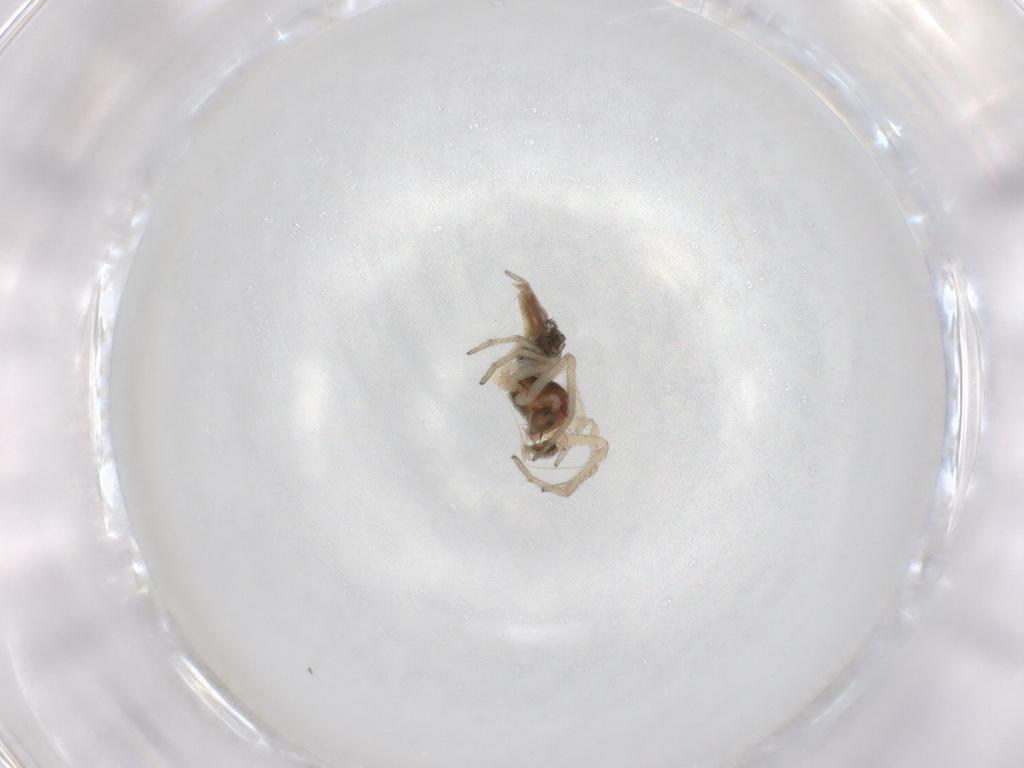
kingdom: Animalia
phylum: Arthropoda
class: Arachnida
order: Araneae
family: Dictynidae
